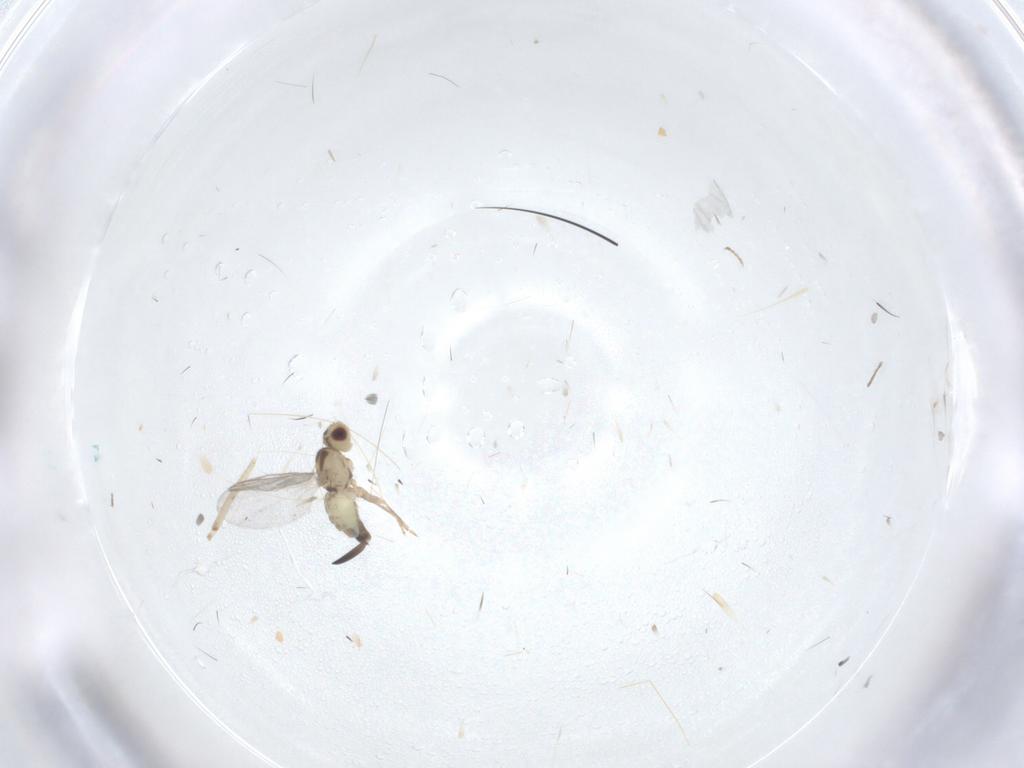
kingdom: Animalia
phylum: Arthropoda
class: Insecta
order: Diptera
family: Agromyzidae
